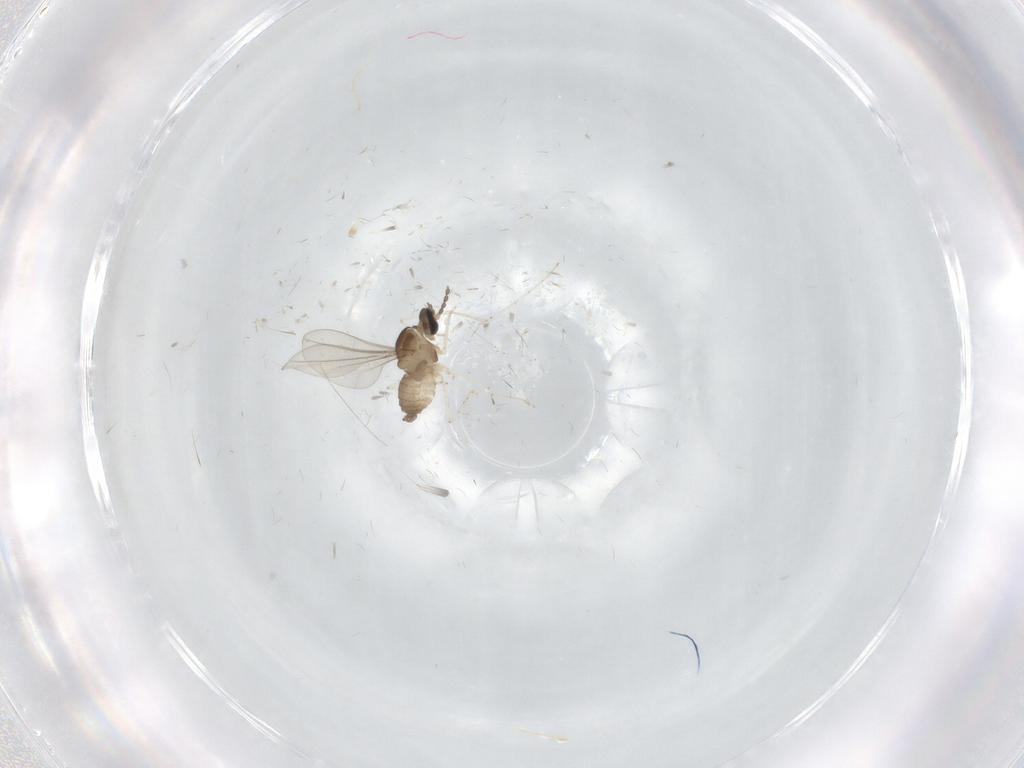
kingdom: Animalia
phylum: Arthropoda
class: Insecta
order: Diptera
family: Cecidomyiidae
